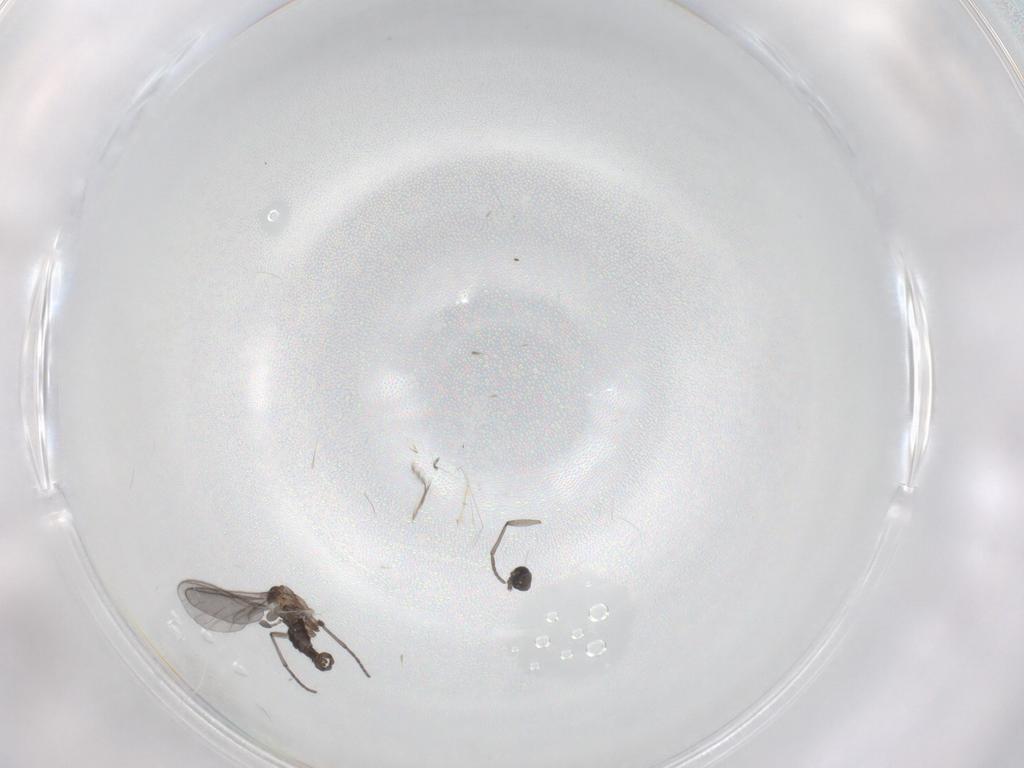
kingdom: Animalia
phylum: Arthropoda
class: Insecta
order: Diptera
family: Sciaridae
